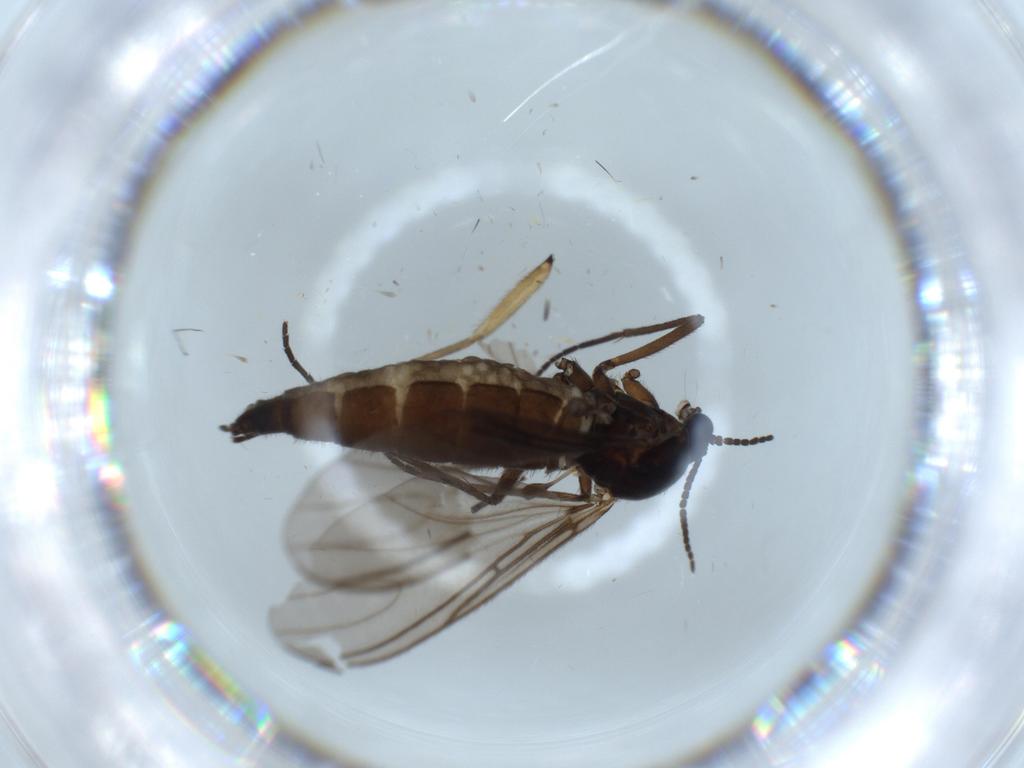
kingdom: Animalia
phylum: Arthropoda
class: Insecta
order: Diptera
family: Sciaridae
